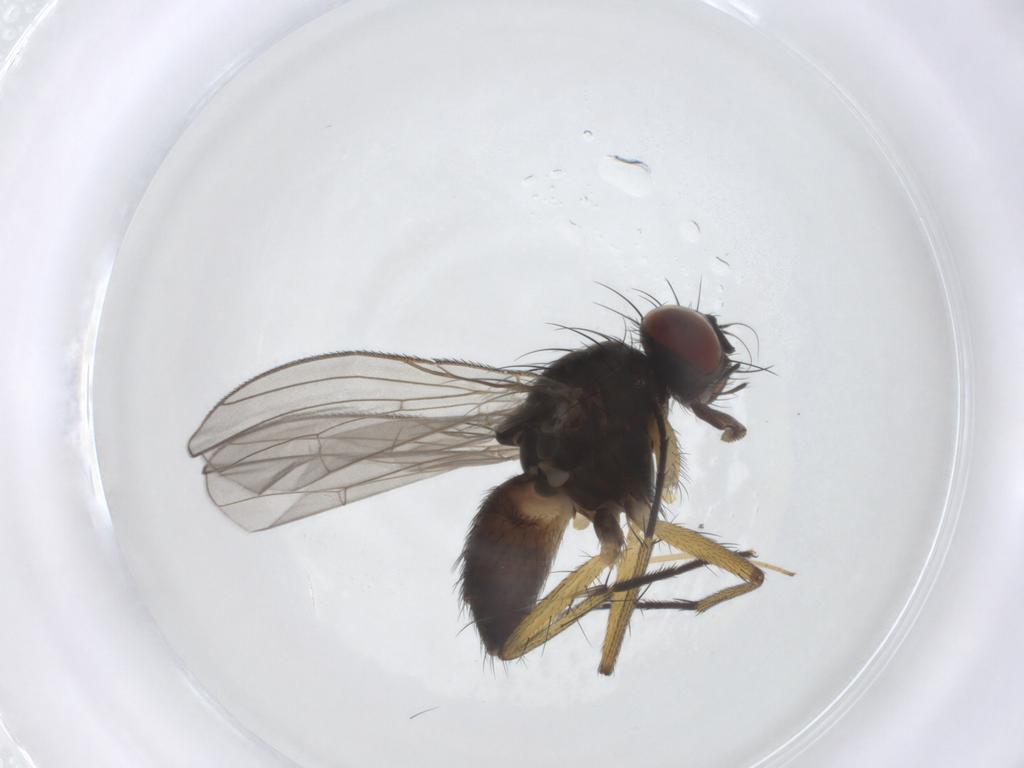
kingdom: Animalia
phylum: Arthropoda
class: Insecta
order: Diptera
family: Muscidae
